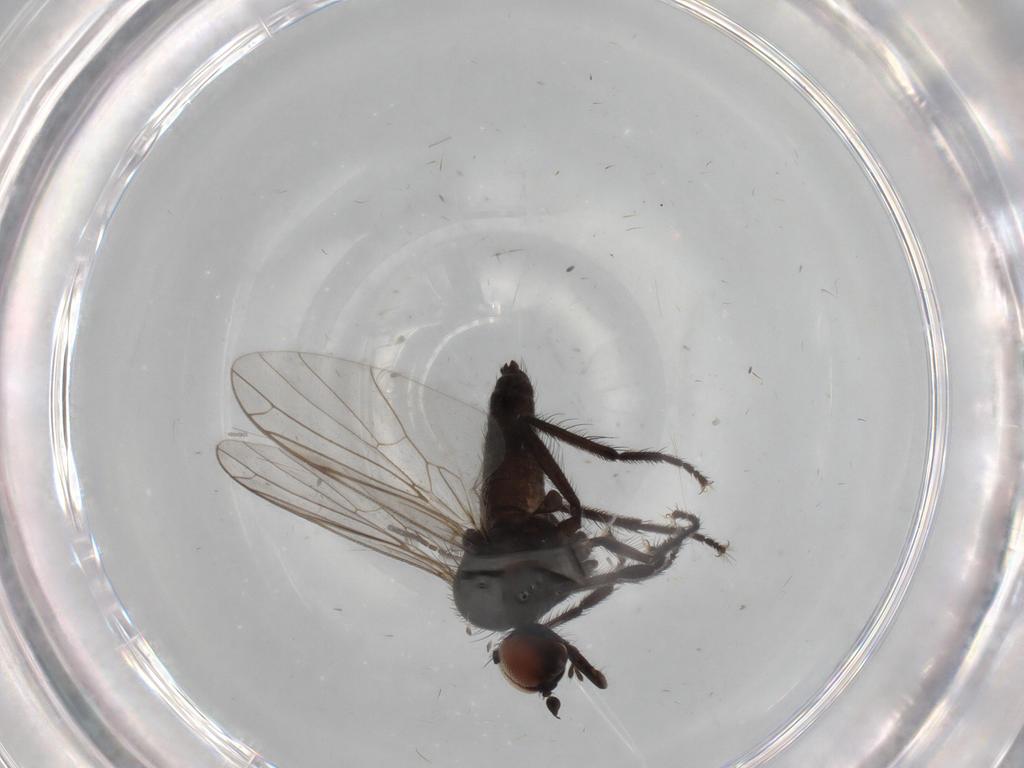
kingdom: Animalia
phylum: Arthropoda
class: Insecta
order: Diptera
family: Empididae
